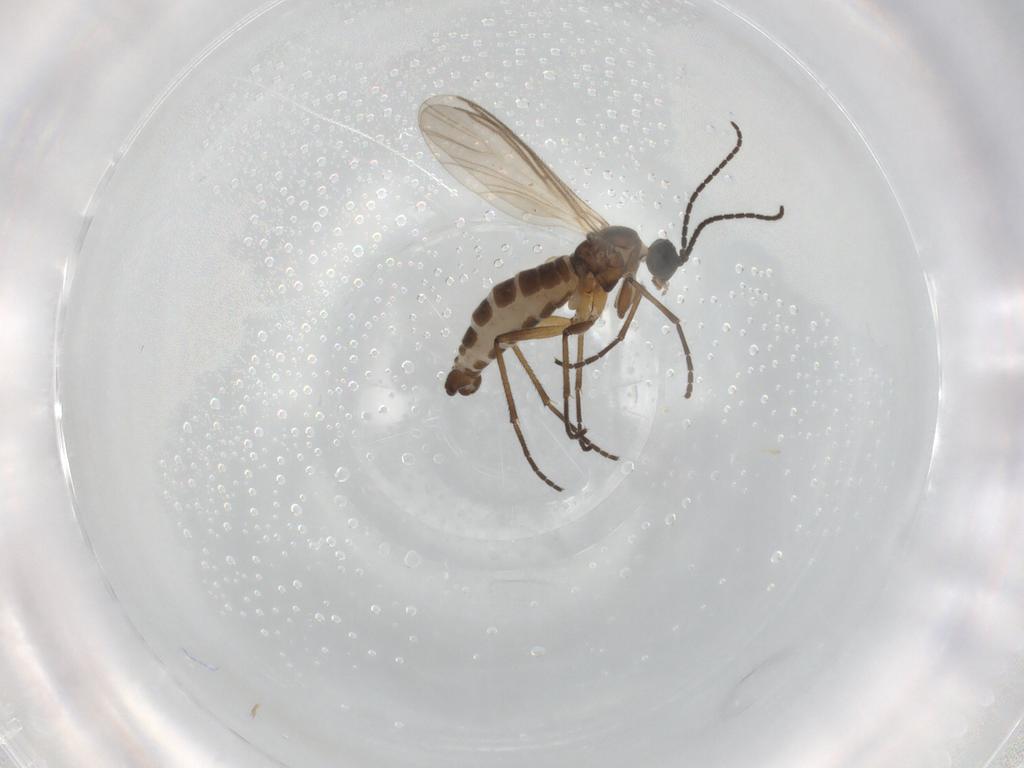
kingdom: Animalia
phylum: Arthropoda
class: Insecta
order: Diptera
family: Sciaridae
